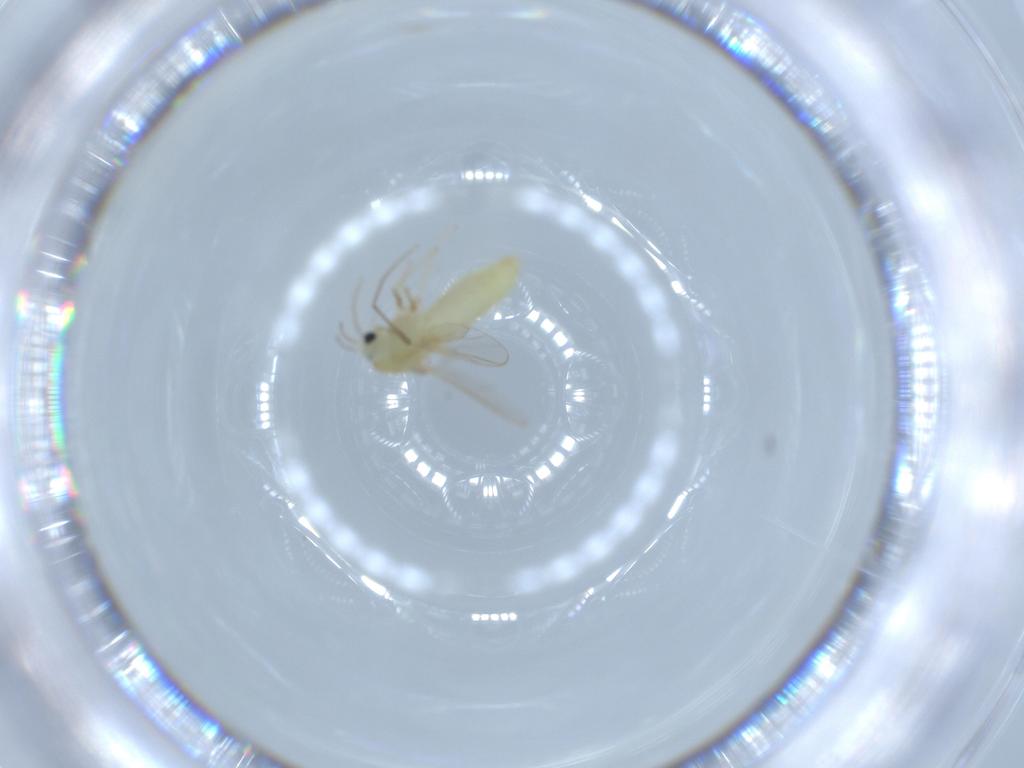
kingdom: Animalia
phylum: Arthropoda
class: Insecta
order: Diptera
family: Chironomidae
